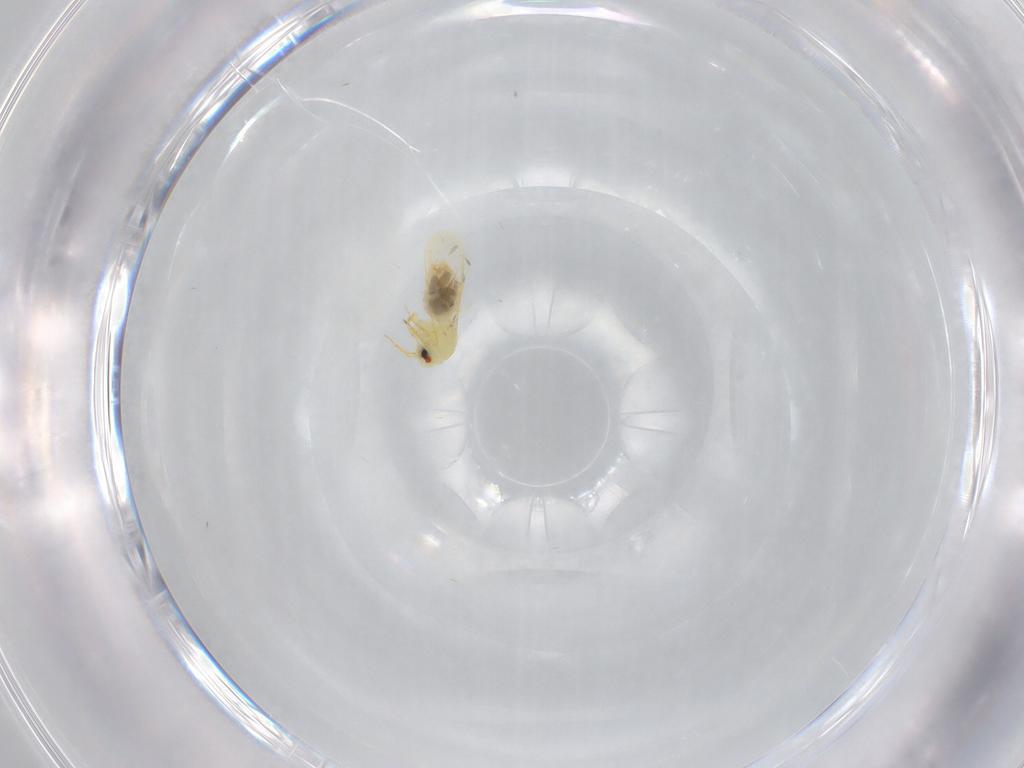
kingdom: Animalia
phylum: Arthropoda
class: Insecta
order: Hemiptera
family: Aleyrodidae
